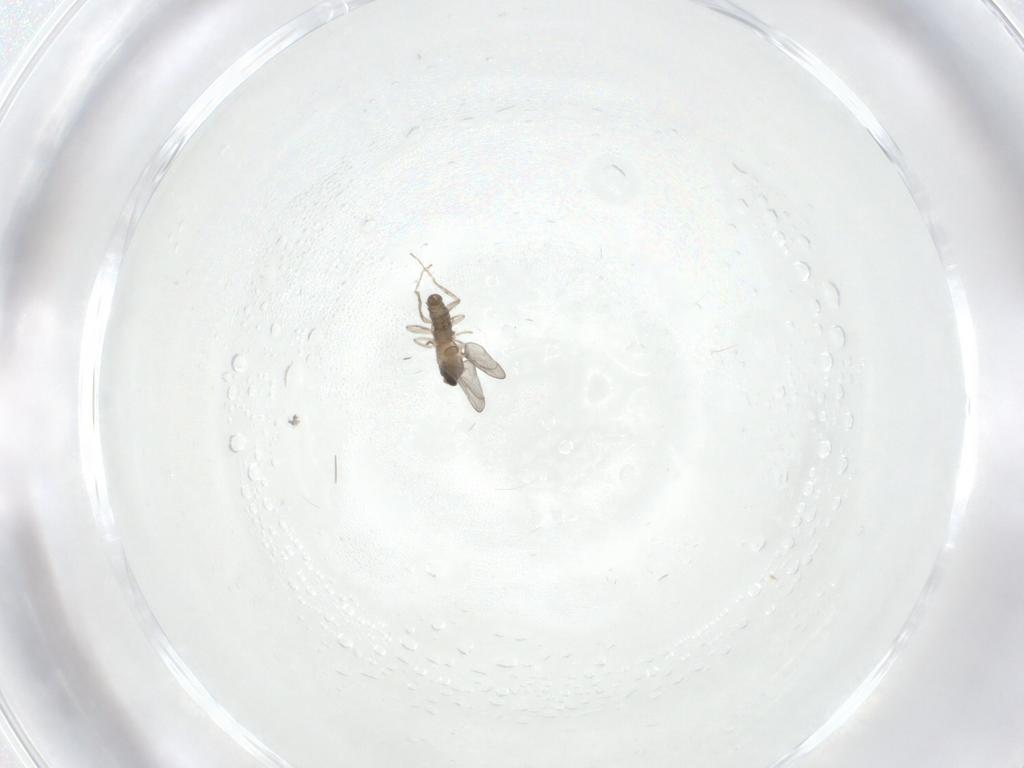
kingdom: Animalia
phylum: Arthropoda
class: Insecta
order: Diptera
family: Cecidomyiidae
